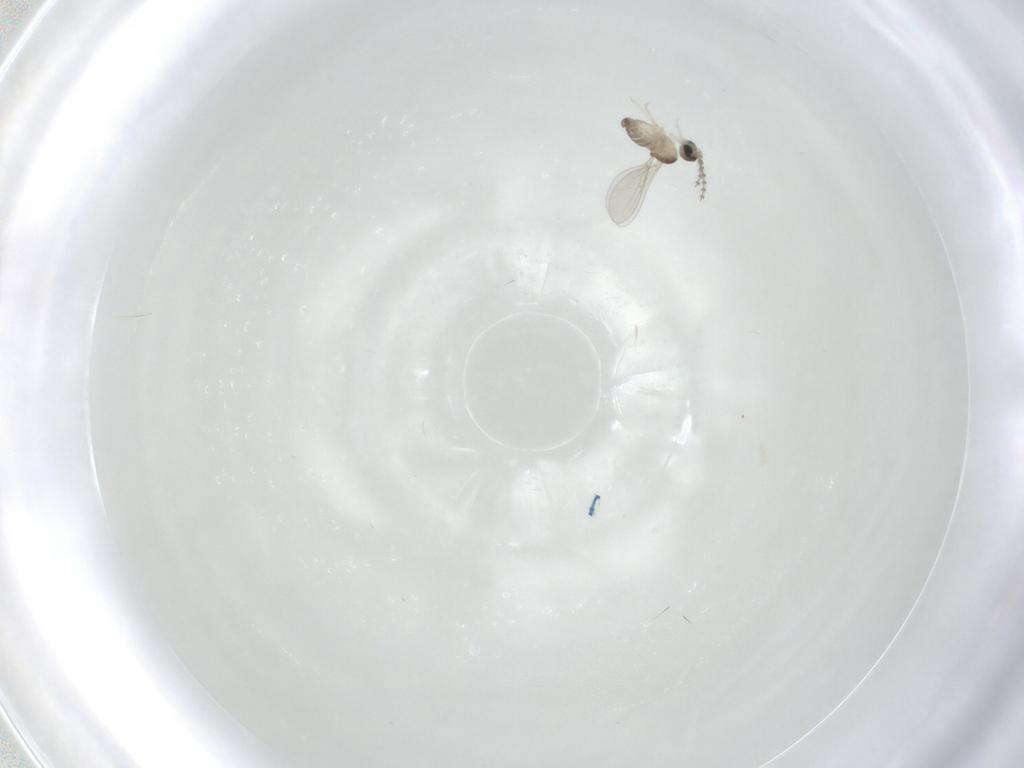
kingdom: Animalia
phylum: Arthropoda
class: Insecta
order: Diptera
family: Cecidomyiidae
